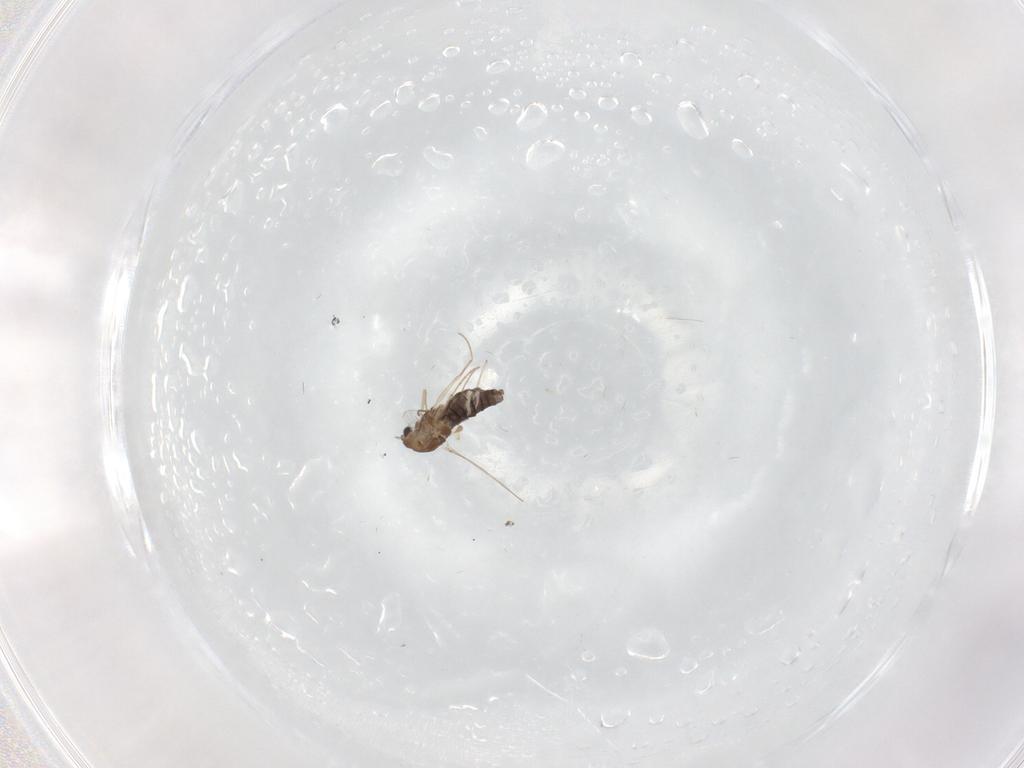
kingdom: Animalia
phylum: Arthropoda
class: Insecta
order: Diptera
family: Chironomidae
